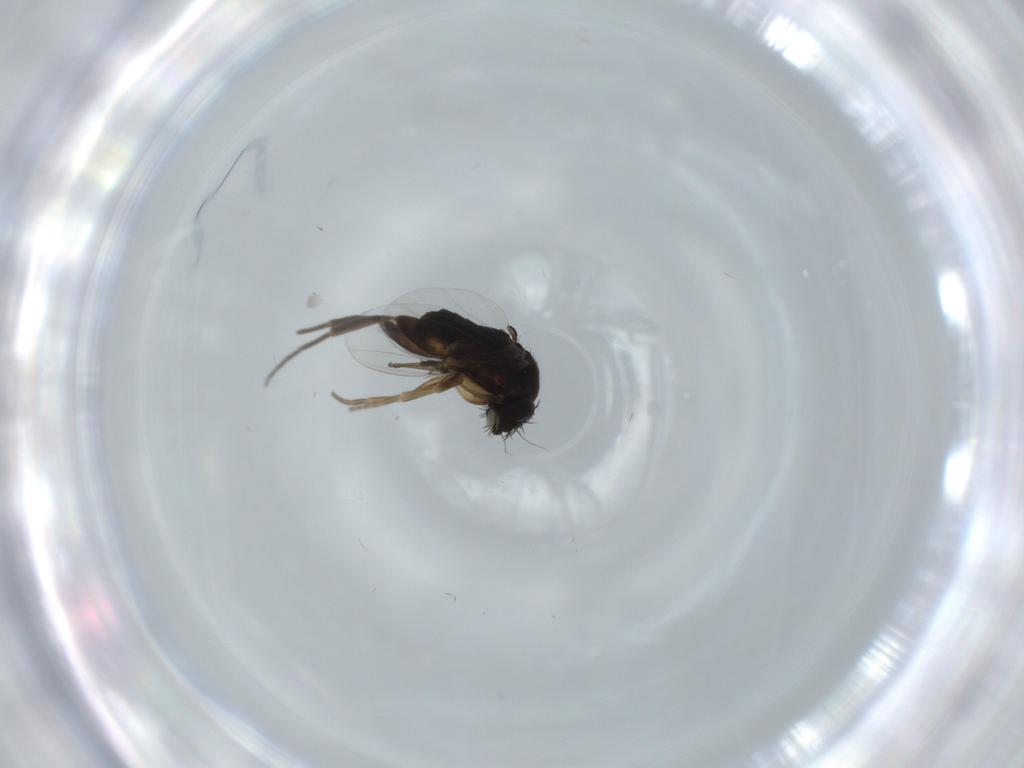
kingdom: Animalia
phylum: Arthropoda
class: Insecta
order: Diptera
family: Phoridae
